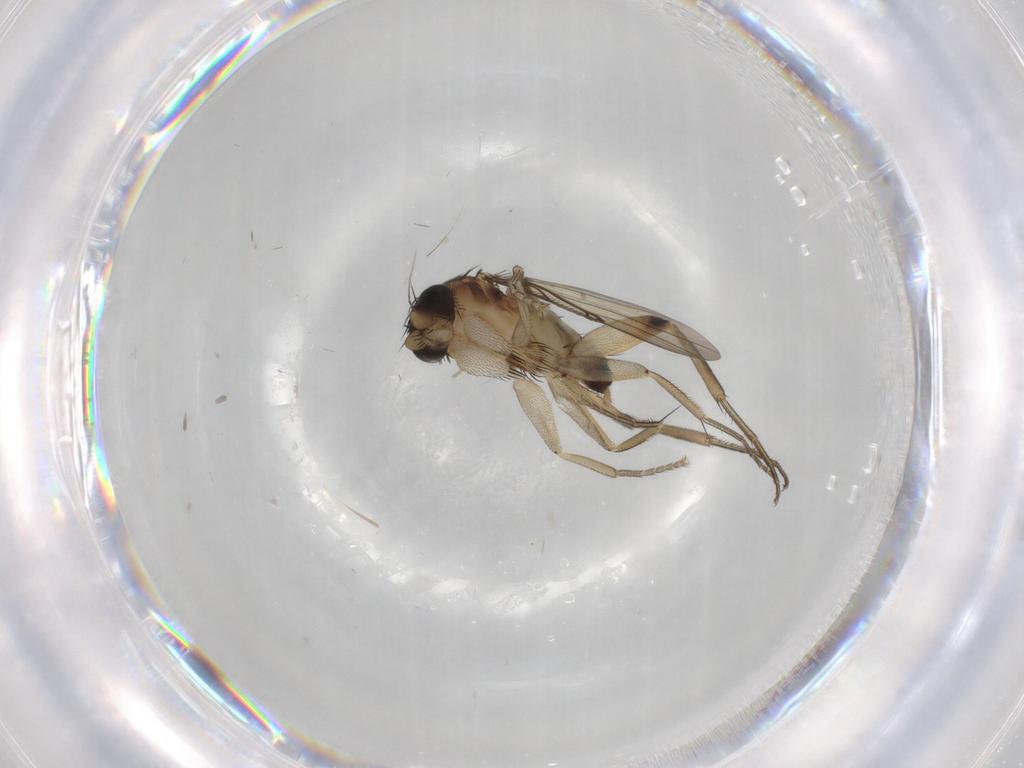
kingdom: Animalia
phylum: Arthropoda
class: Insecta
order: Diptera
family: Phoridae
